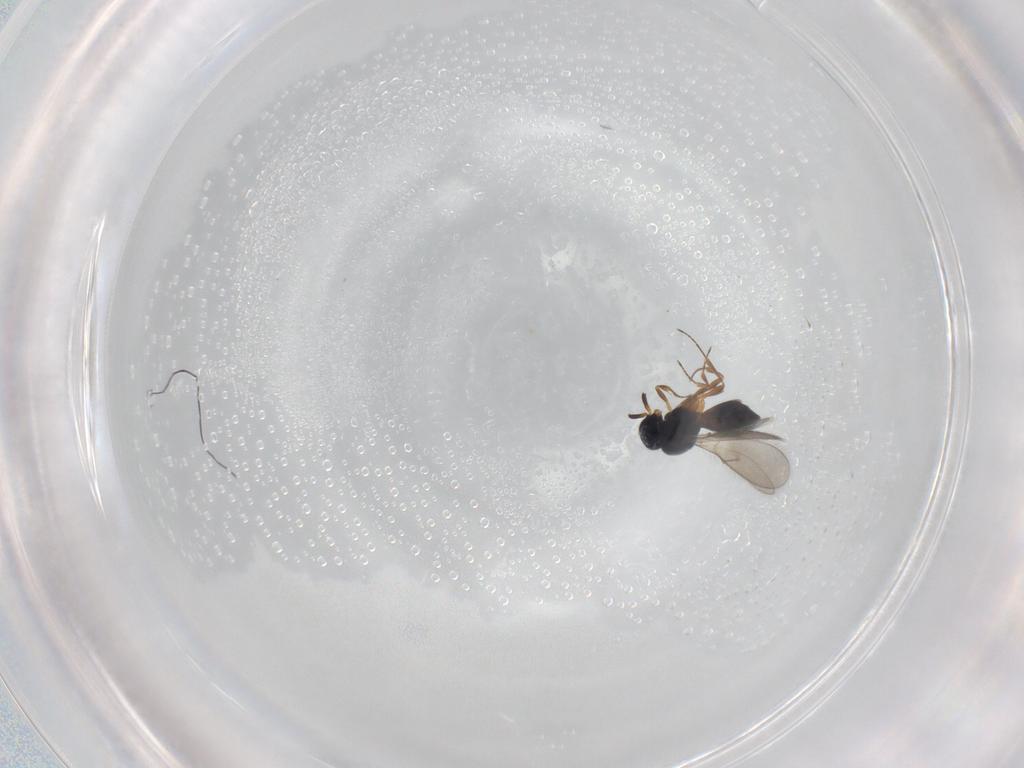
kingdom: Animalia
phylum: Arthropoda
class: Insecta
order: Hymenoptera
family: Scelionidae
